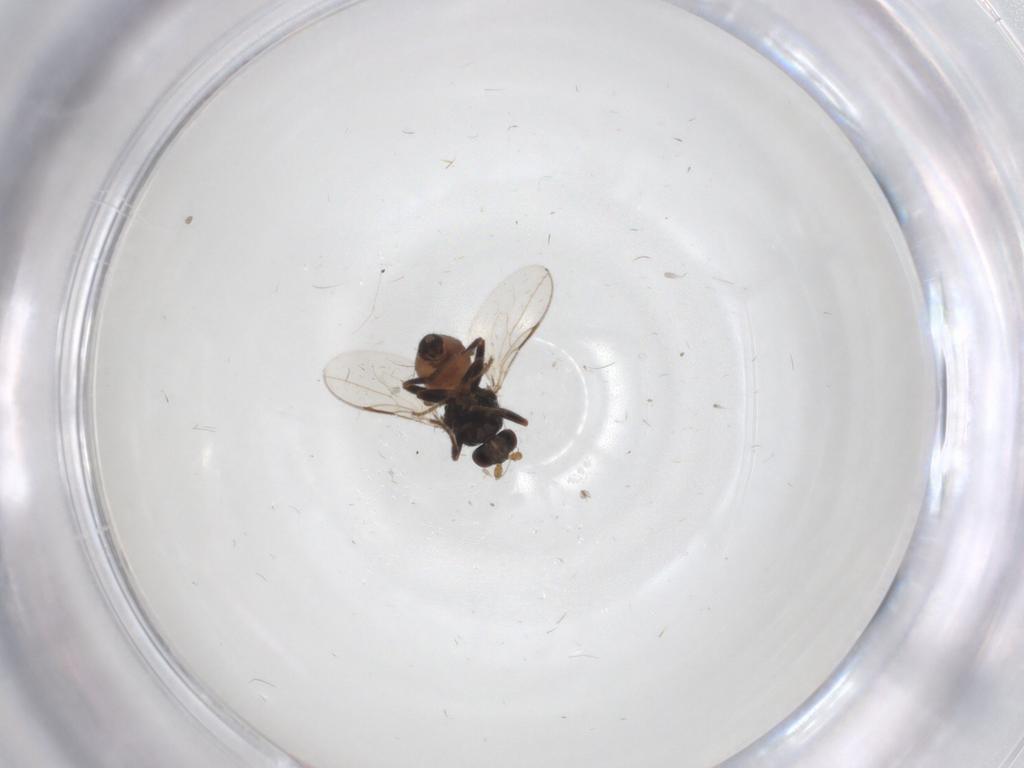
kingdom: Animalia
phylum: Arthropoda
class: Insecta
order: Diptera
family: Sphaeroceridae
